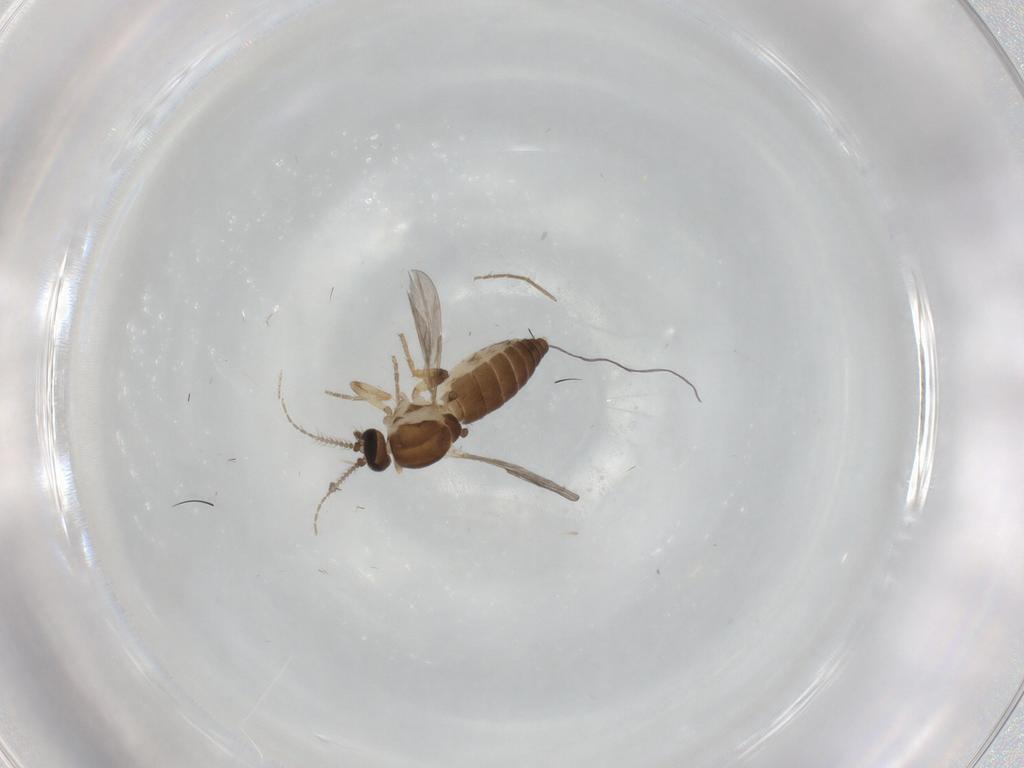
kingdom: Animalia
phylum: Arthropoda
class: Insecta
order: Diptera
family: Ceratopogonidae
